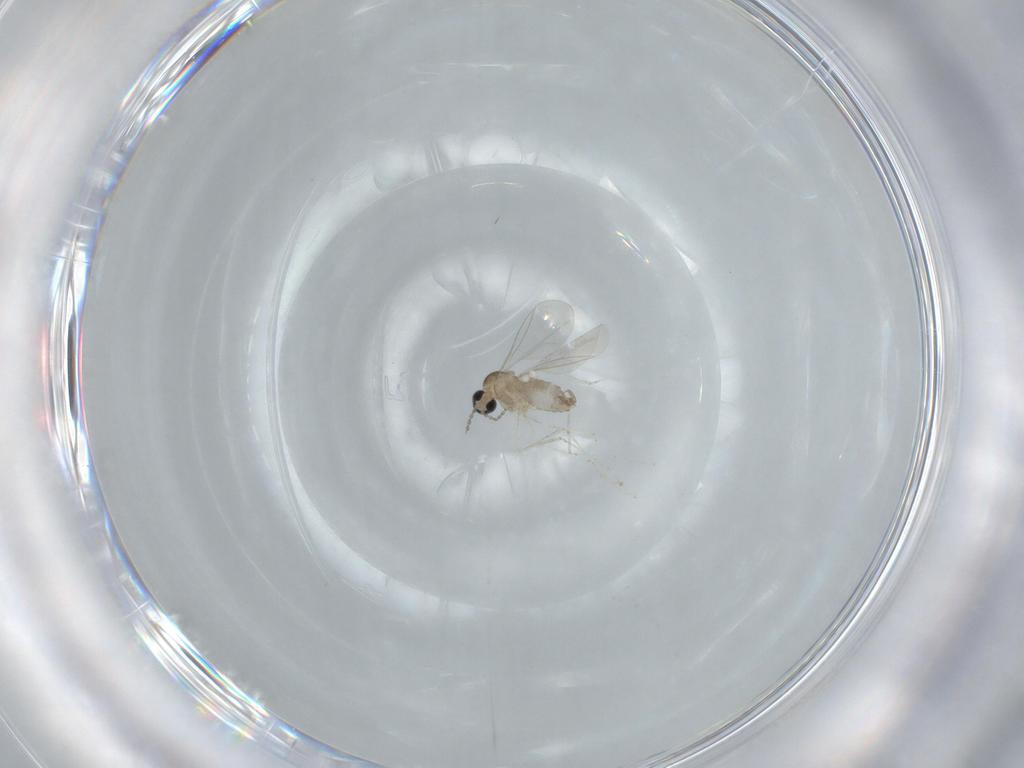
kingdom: Animalia
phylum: Arthropoda
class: Insecta
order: Diptera
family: Cecidomyiidae
